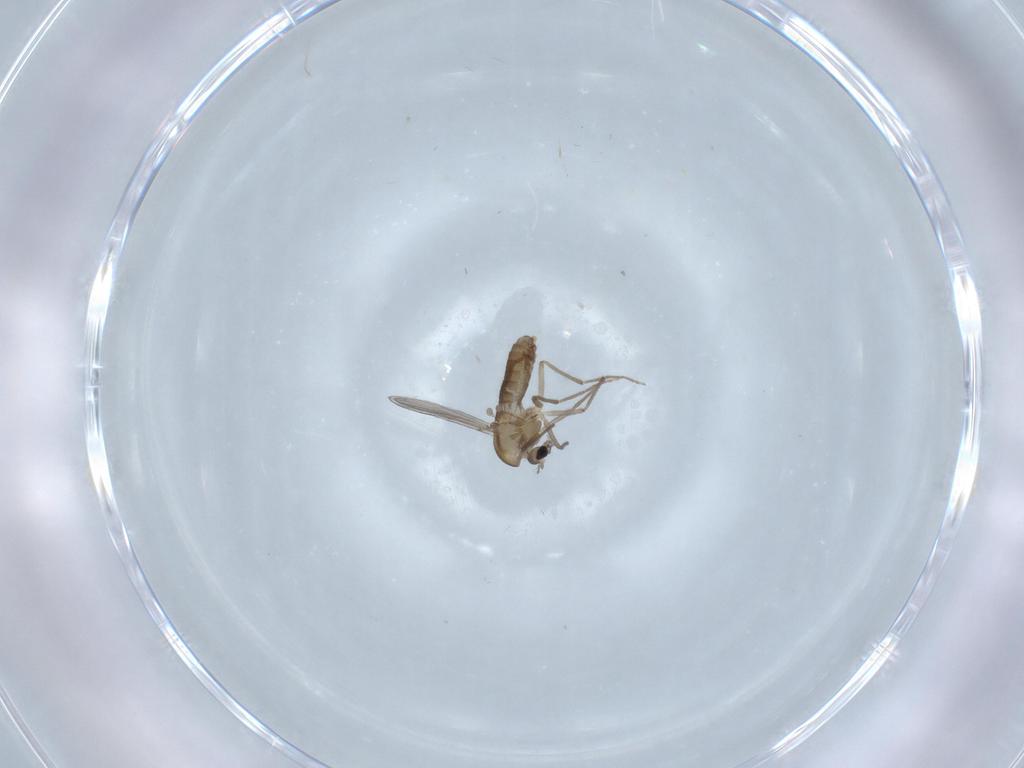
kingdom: Animalia
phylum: Arthropoda
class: Insecta
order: Diptera
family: Chironomidae
